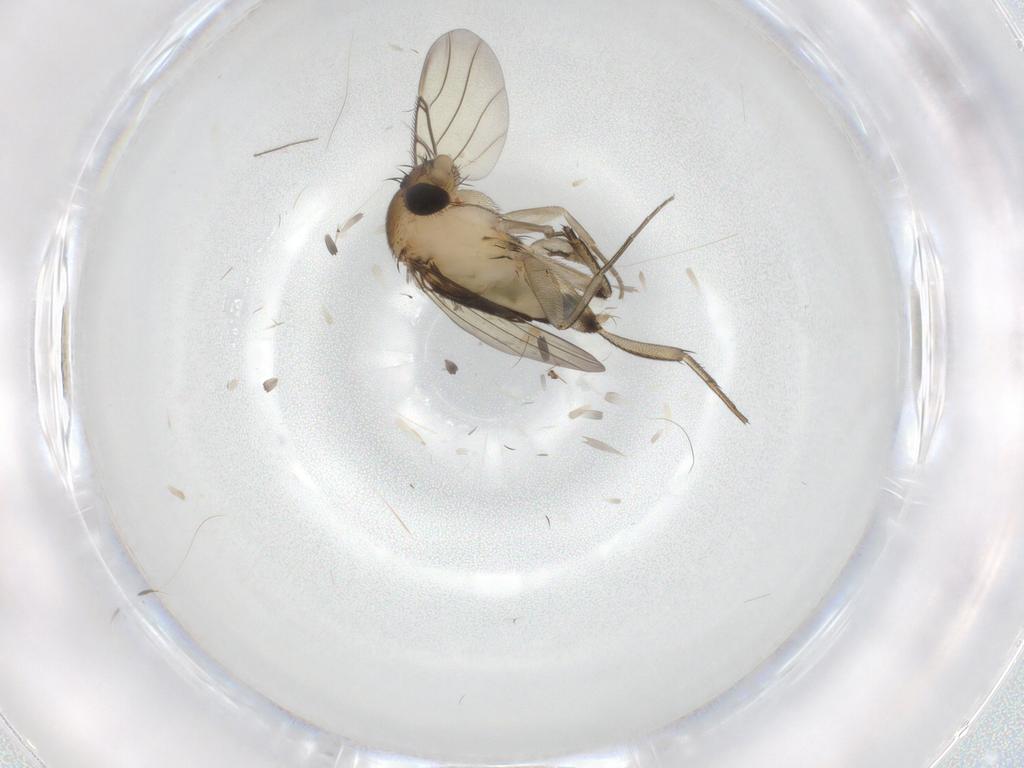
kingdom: Animalia
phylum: Arthropoda
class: Insecta
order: Diptera
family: Phoridae
